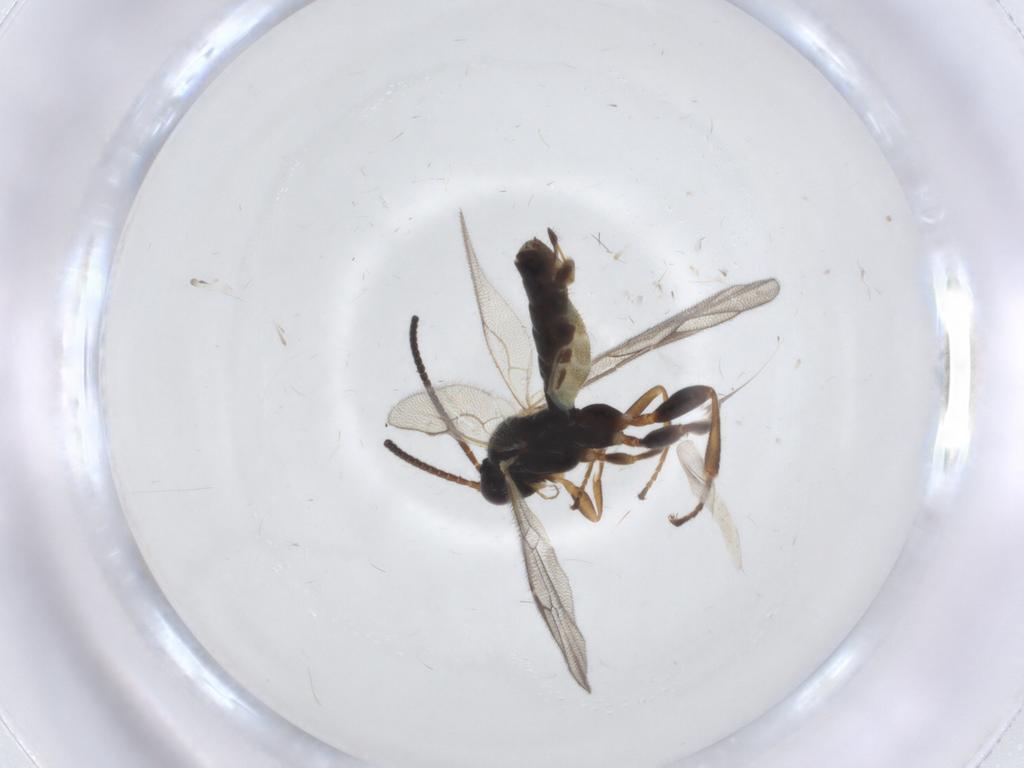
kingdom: Animalia
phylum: Arthropoda
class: Insecta
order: Hymenoptera
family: Ichneumonidae
